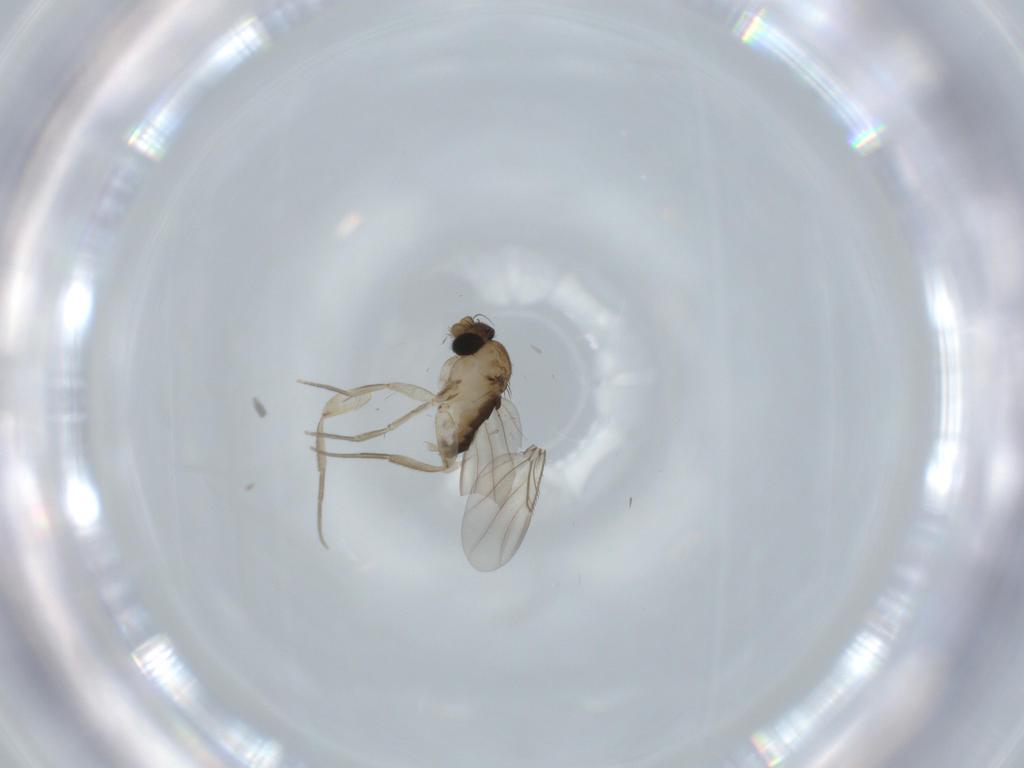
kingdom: Animalia
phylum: Arthropoda
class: Insecta
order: Diptera
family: Phoridae
